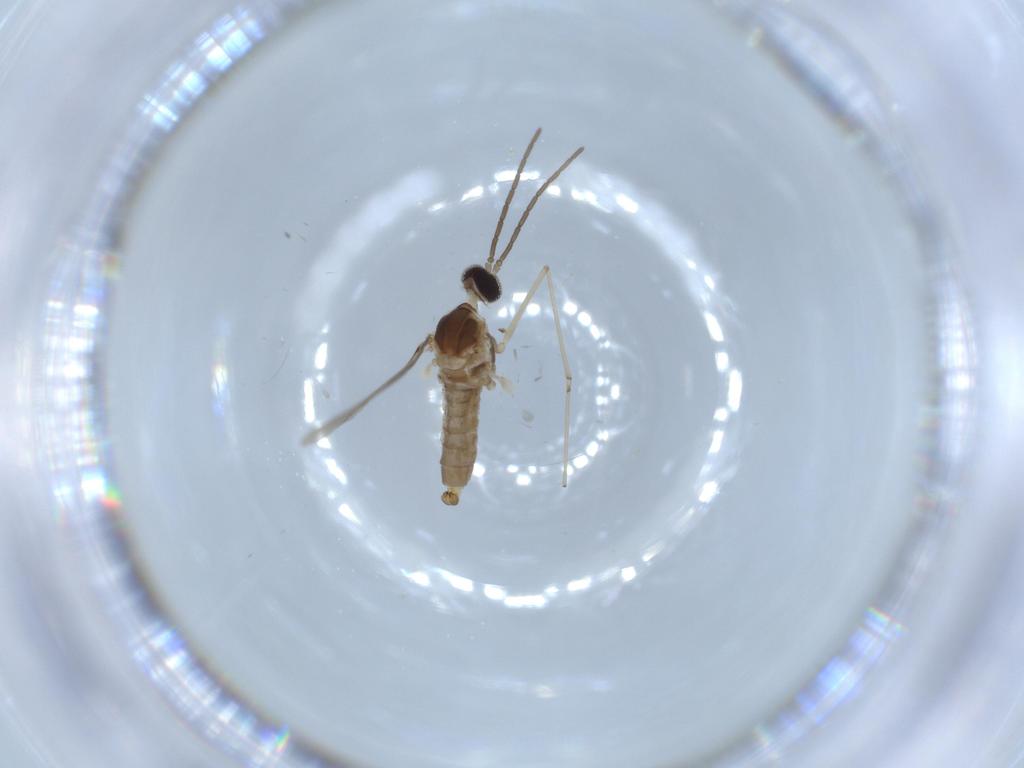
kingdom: Animalia
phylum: Arthropoda
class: Insecta
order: Diptera
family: Cecidomyiidae
